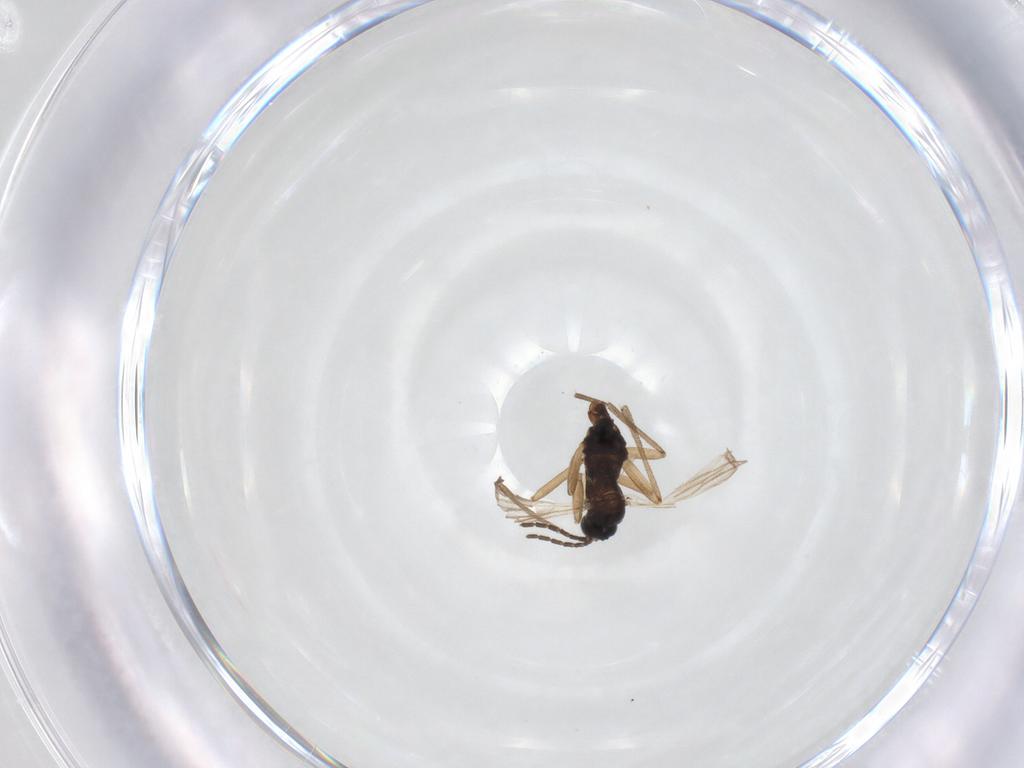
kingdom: Animalia
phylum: Arthropoda
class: Insecta
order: Diptera
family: Sciaridae
